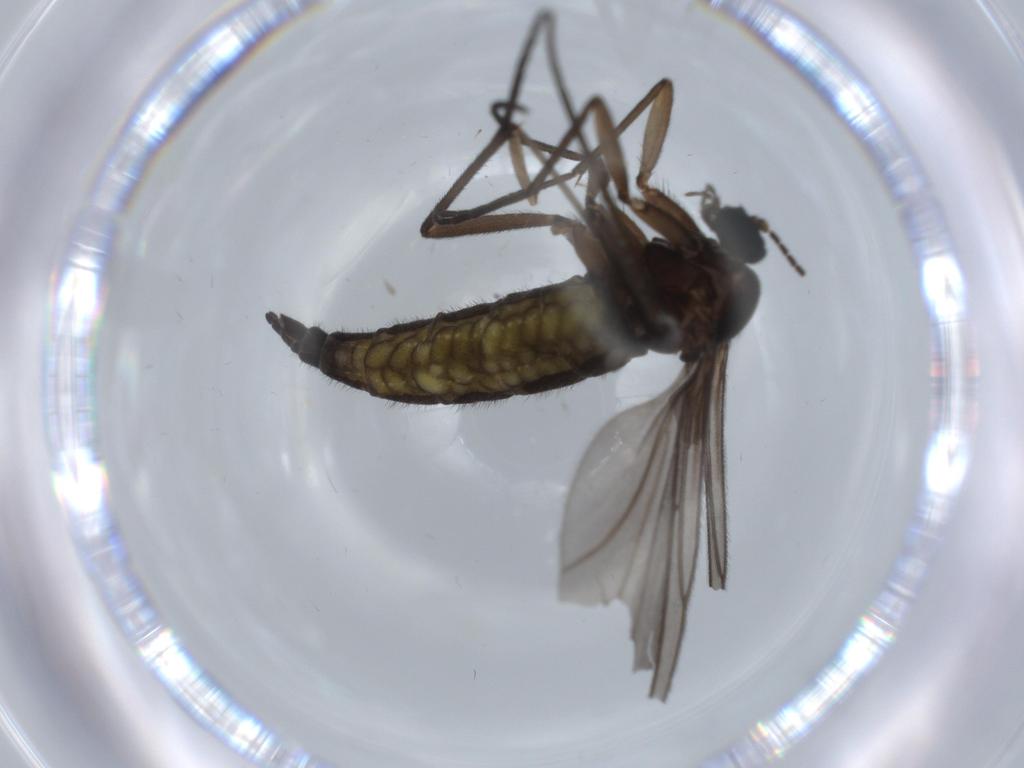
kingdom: Animalia
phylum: Arthropoda
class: Insecta
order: Diptera
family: Sciaridae
